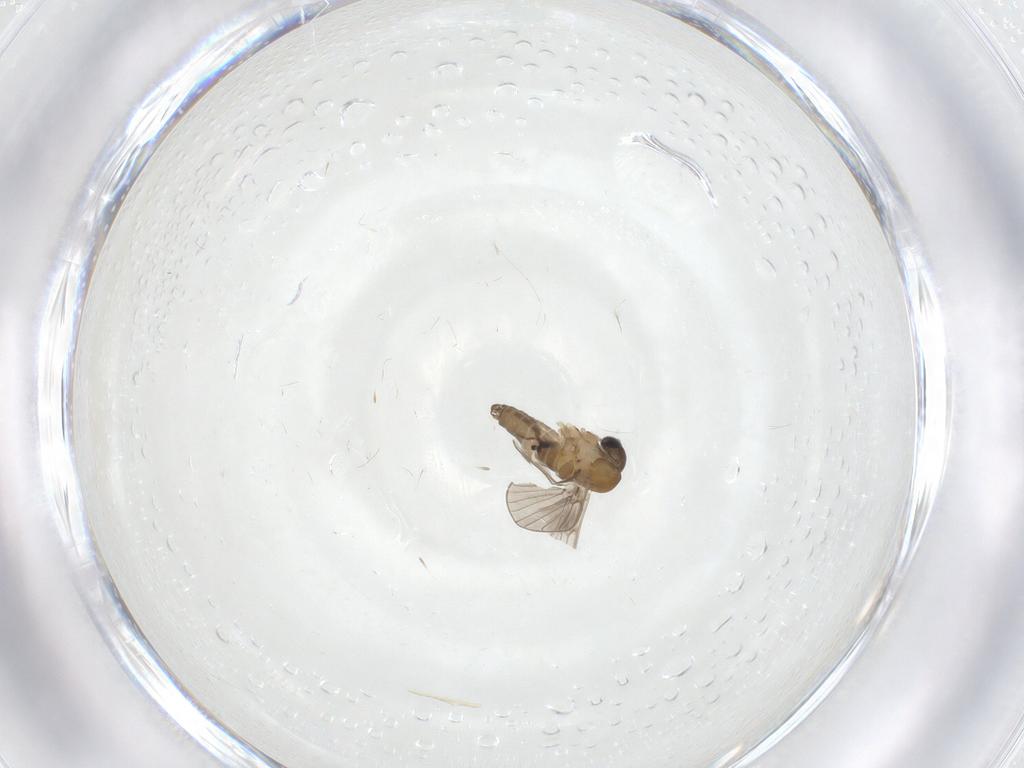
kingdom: Animalia
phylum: Arthropoda
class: Insecta
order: Diptera
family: Dolichopodidae
